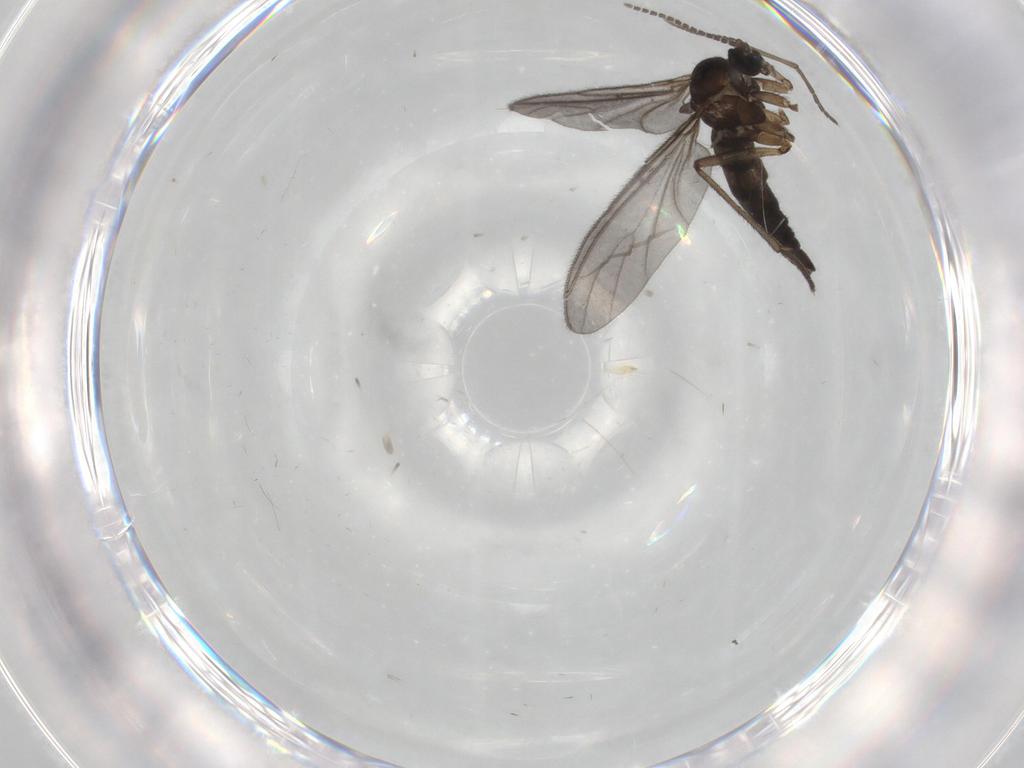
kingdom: Animalia
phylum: Arthropoda
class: Insecta
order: Diptera
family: Sciaridae
